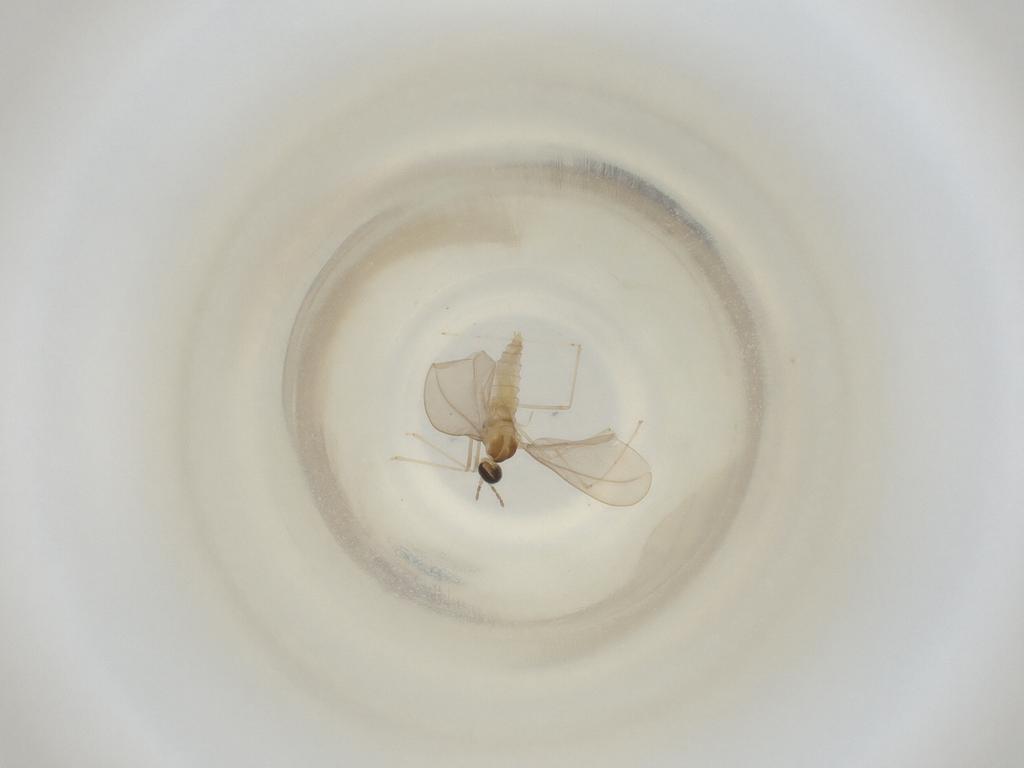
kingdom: Animalia
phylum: Arthropoda
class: Insecta
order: Diptera
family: Cecidomyiidae
